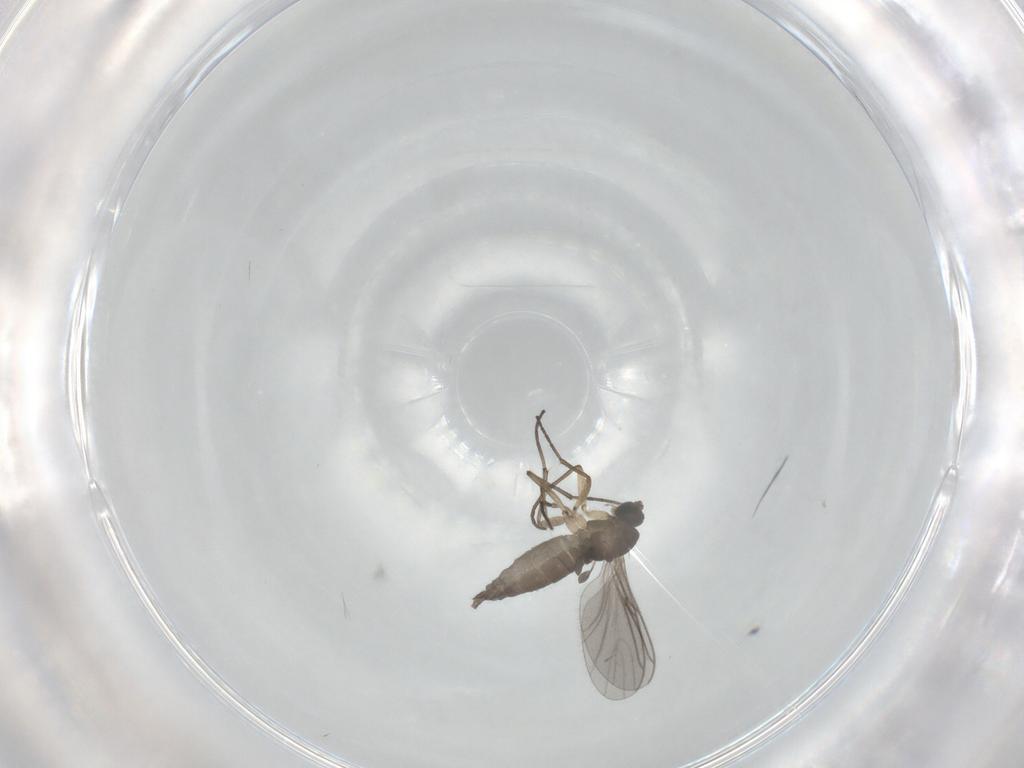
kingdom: Animalia
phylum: Arthropoda
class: Insecta
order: Diptera
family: Sciaridae
